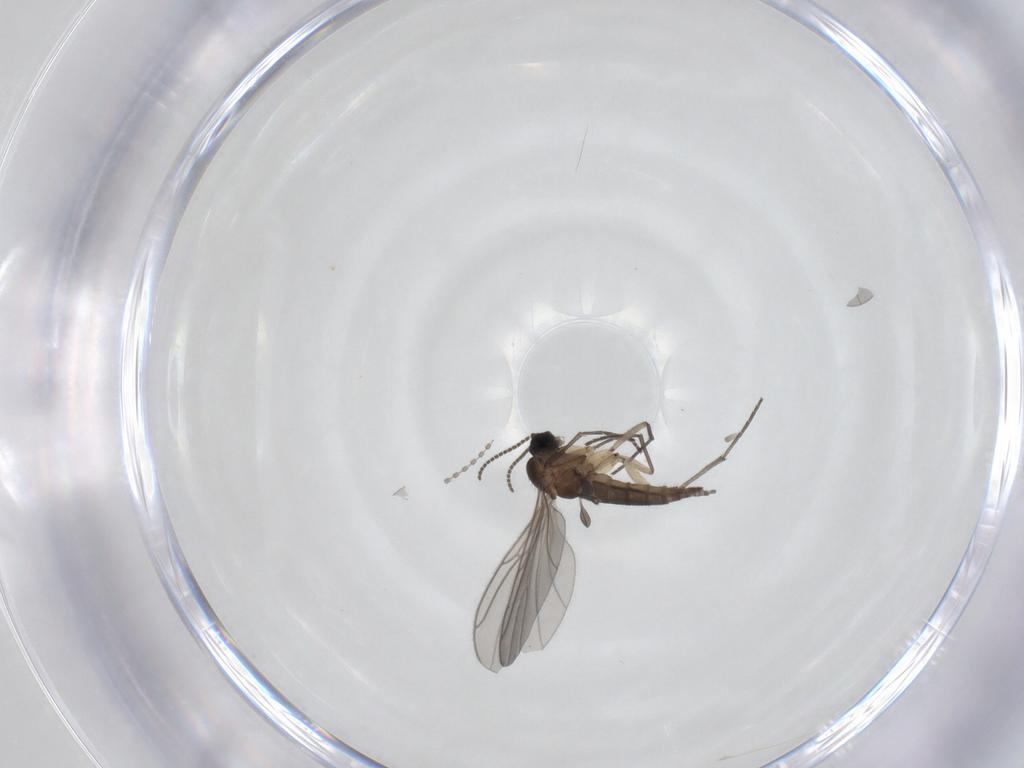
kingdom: Animalia
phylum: Arthropoda
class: Insecta
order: Diptera
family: Sciaridae
